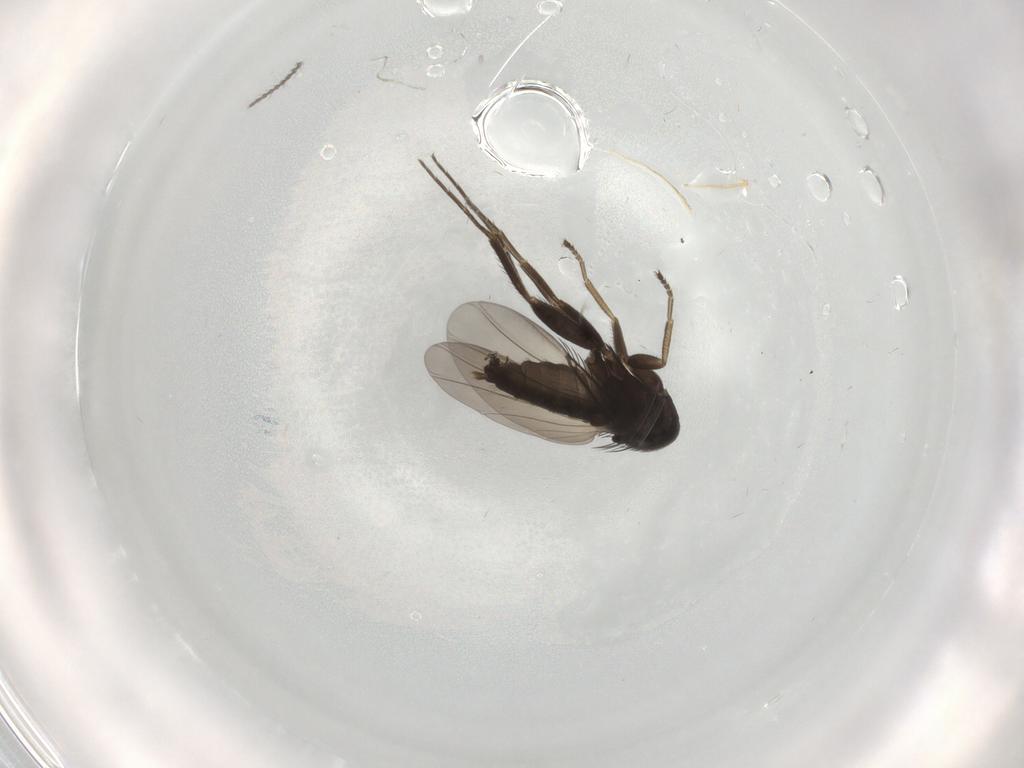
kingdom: Animalia
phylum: Arthropoda
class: Insecta
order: Diptera
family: Phoridae
